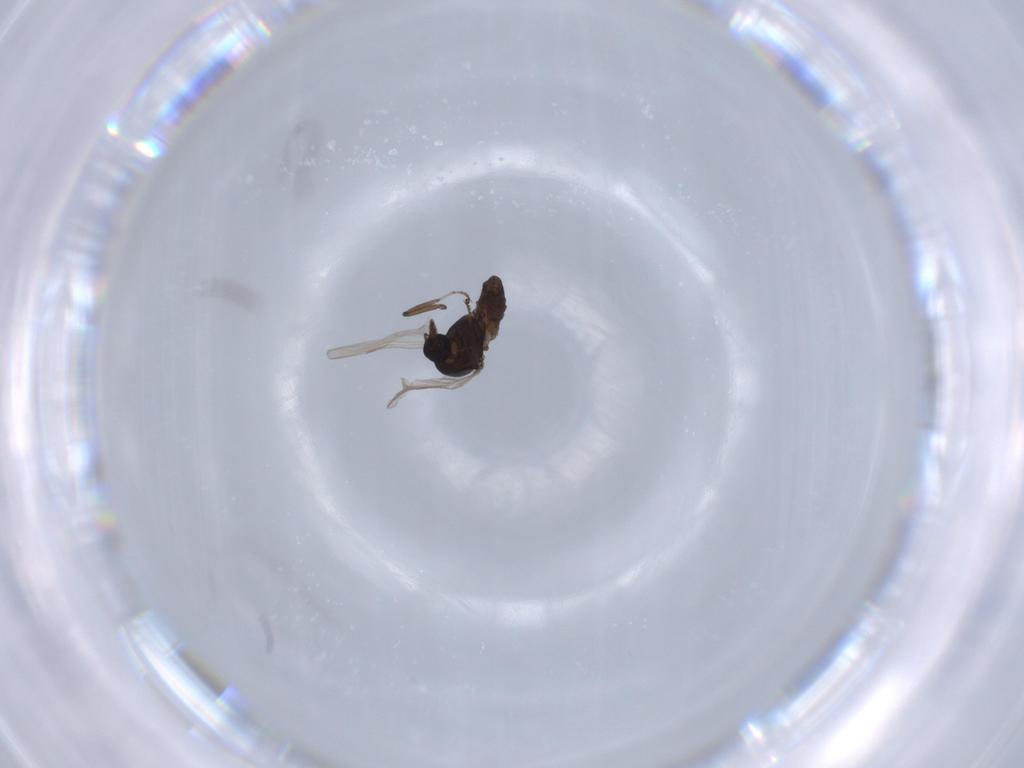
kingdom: Animalia
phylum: Arthropoda
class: Insecta
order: Diptera
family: Ceratopogonidae
